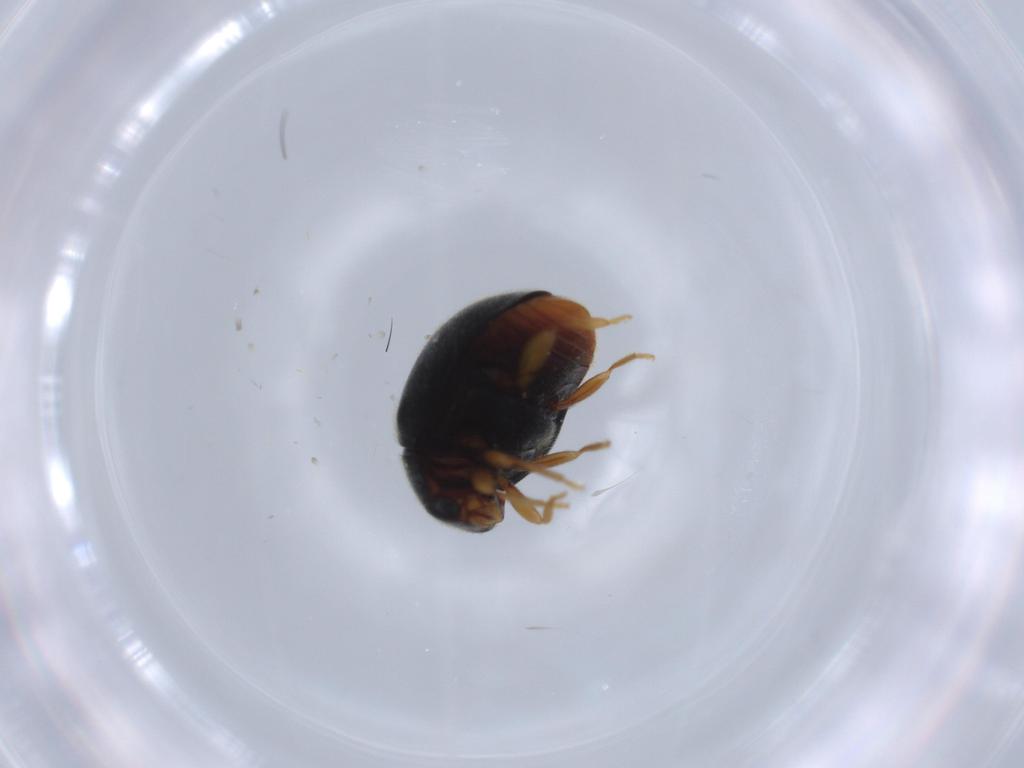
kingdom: Animalia
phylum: Arthropoda
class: Insecta
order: Coleoptera
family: Coccinellidae
